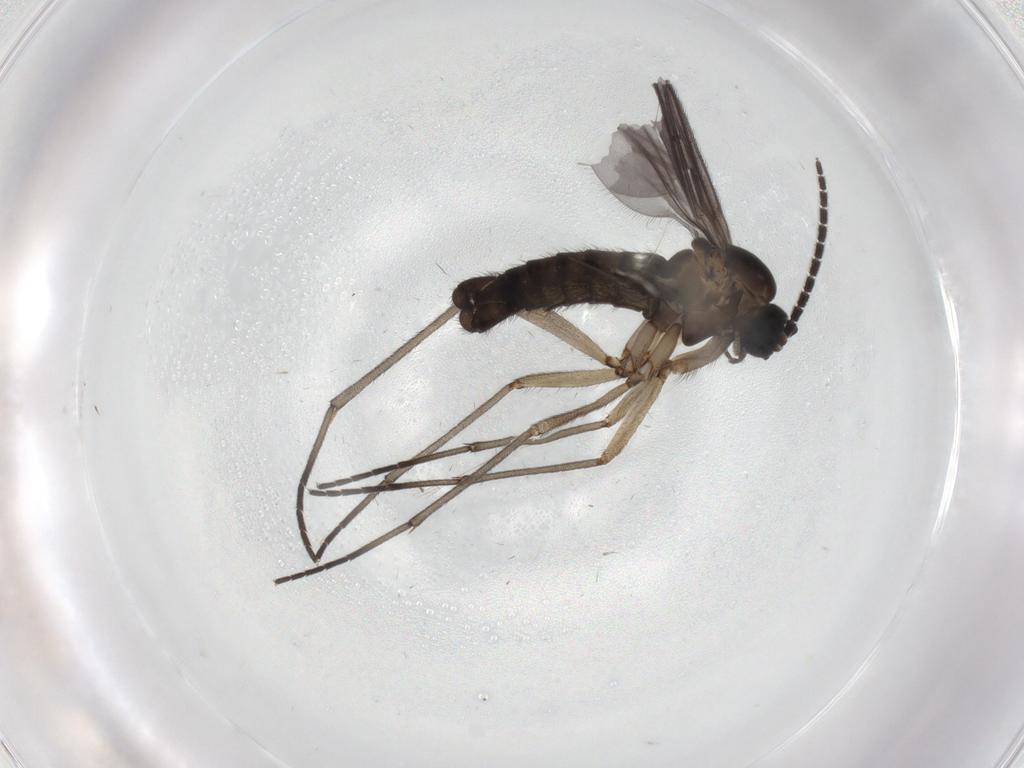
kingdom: Animalia
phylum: Arthropoda
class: Insecta
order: Diptera
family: Sciaridae
